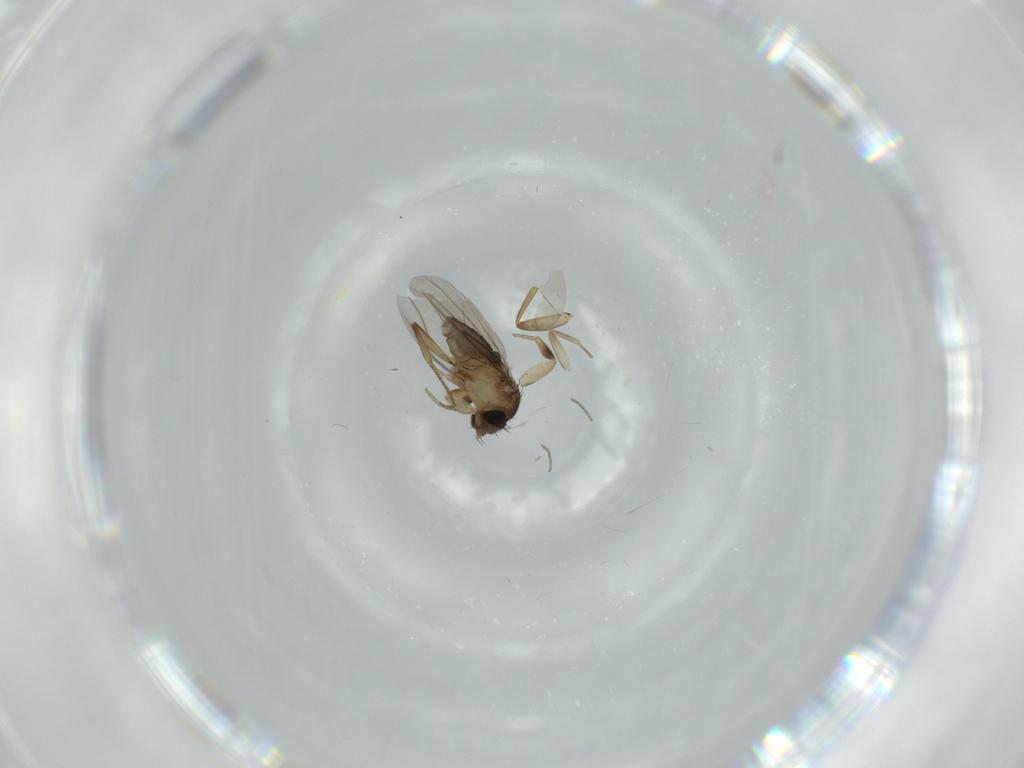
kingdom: Animalia
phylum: Arthropoda
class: Insecta
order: Diptera
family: Phoridae
